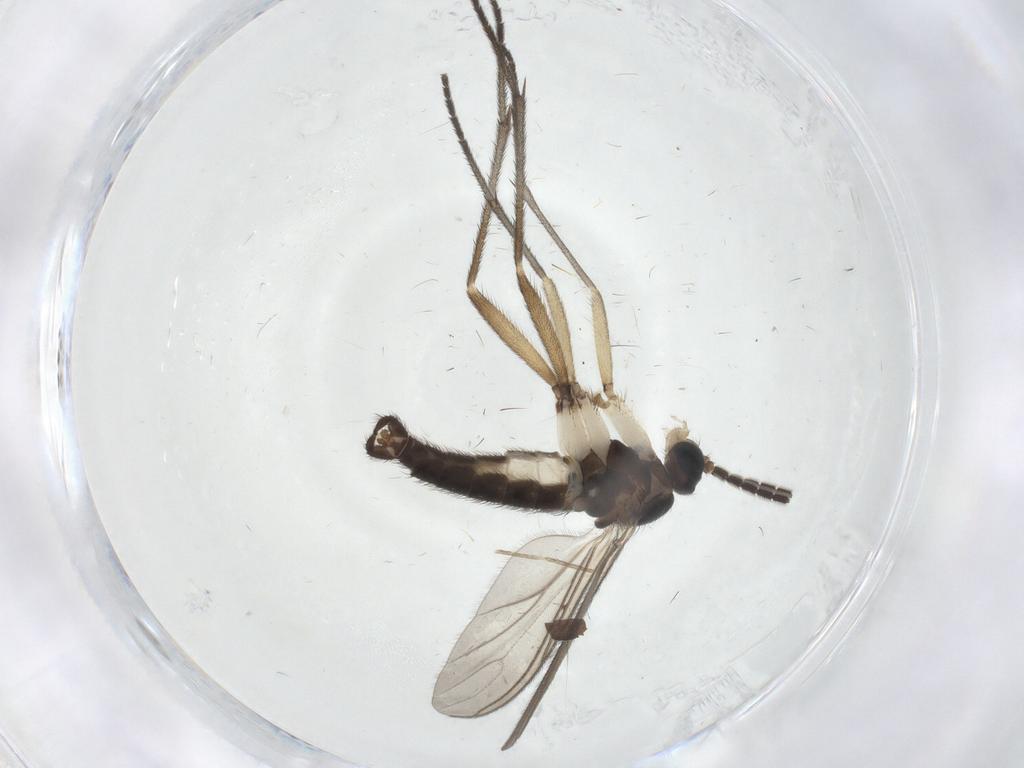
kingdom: Animalia
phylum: Arthropoda
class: Insecta
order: Diptera
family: Sciaridae
